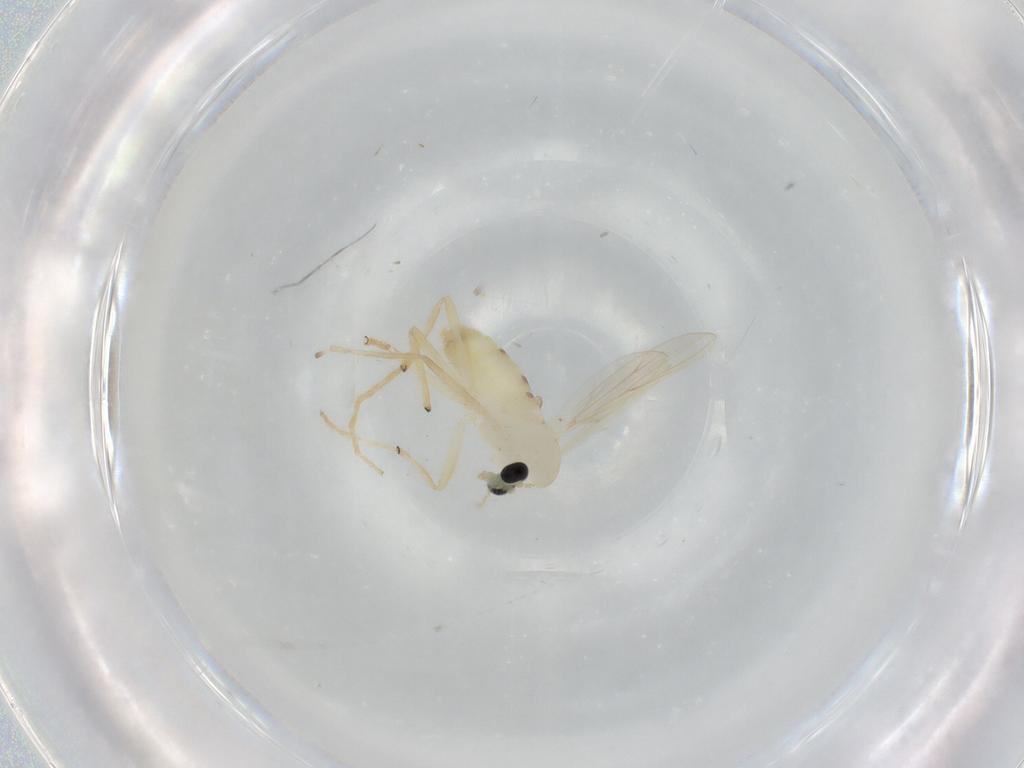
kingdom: Animalia
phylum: Arthropoda
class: Insecta
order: Diptera
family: Chironomidae
